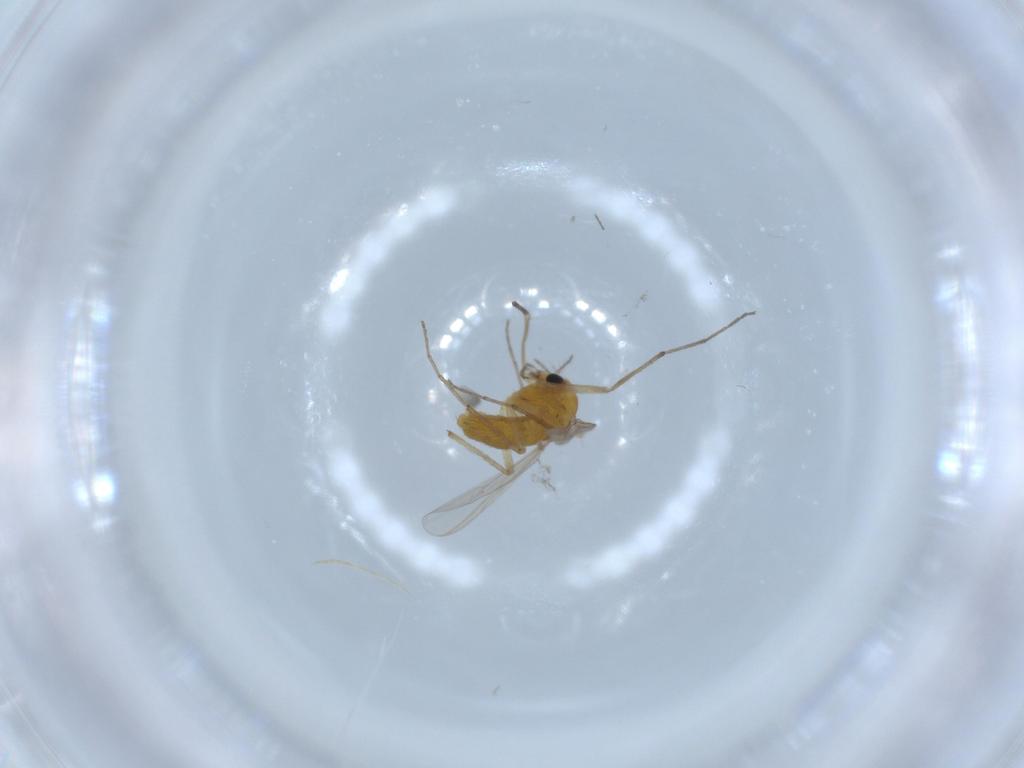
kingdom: Animalia
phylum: Arthropoda
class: Insecta
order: Diptera
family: Chironomidae
